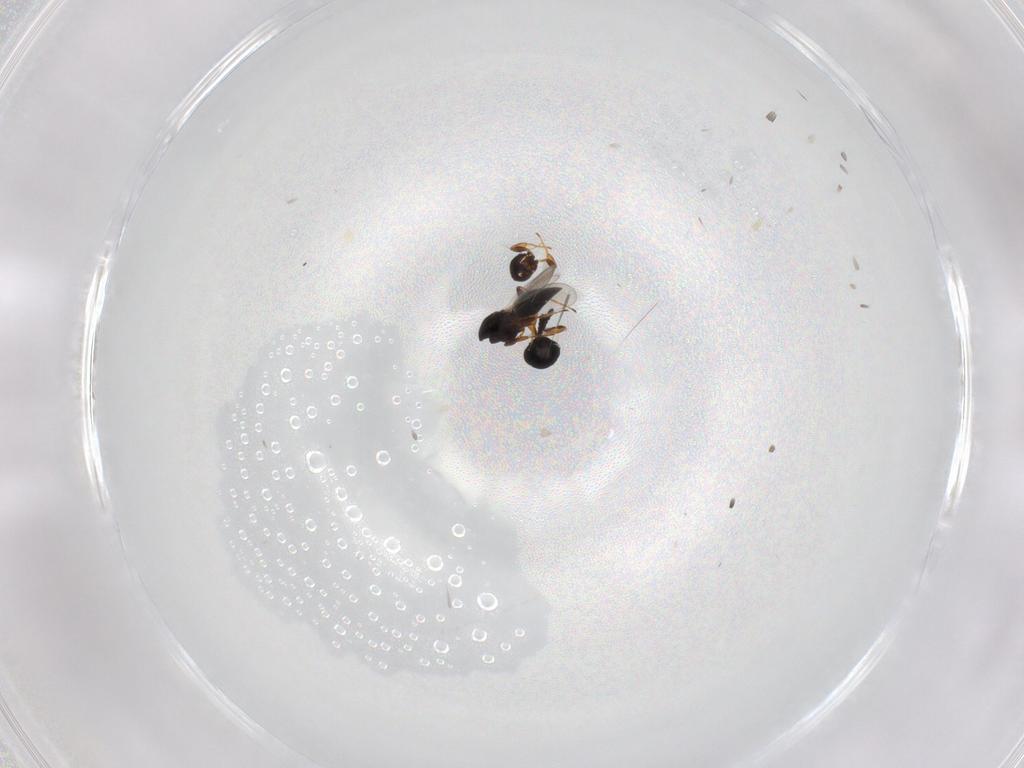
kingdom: Animalia
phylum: Arthropoda
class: Insecta
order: Hymenoptera
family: Platygastridae
